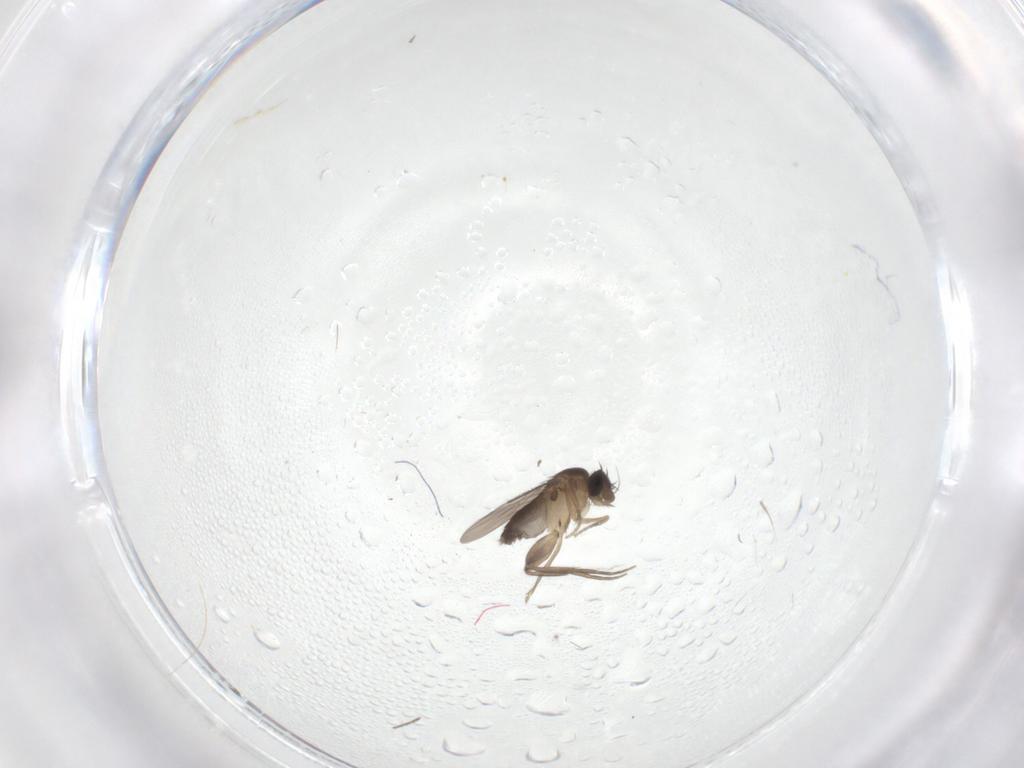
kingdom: Animalia
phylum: Arthropoda
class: Insecta
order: Diptera
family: Phoridae
